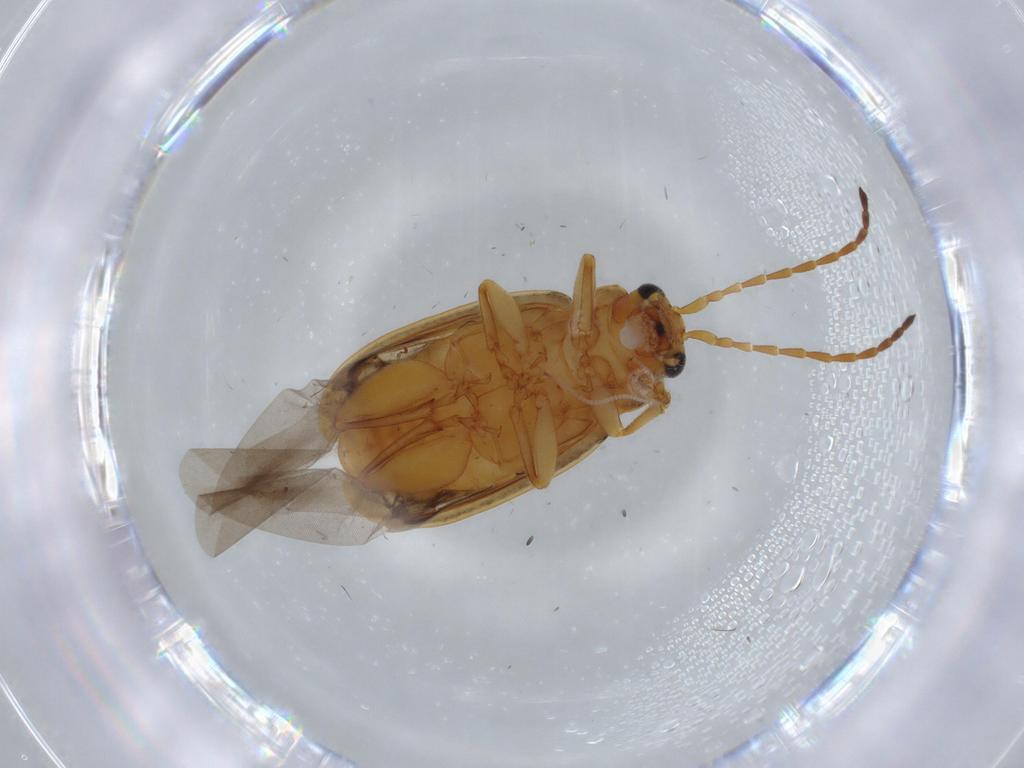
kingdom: Animalia
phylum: Arthropoda
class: Insecta
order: Coleoptera
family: Chrysomelidae
